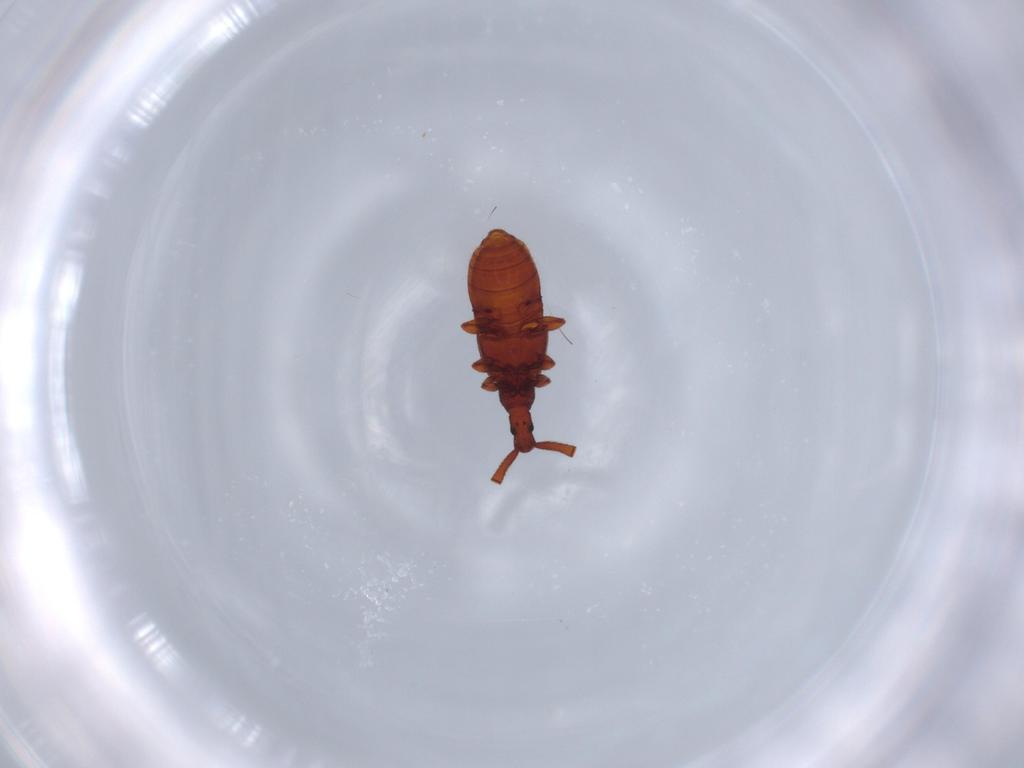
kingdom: Animalia
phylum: Arthropoda
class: Insecta
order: Coleoptera
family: Staphylinidae
